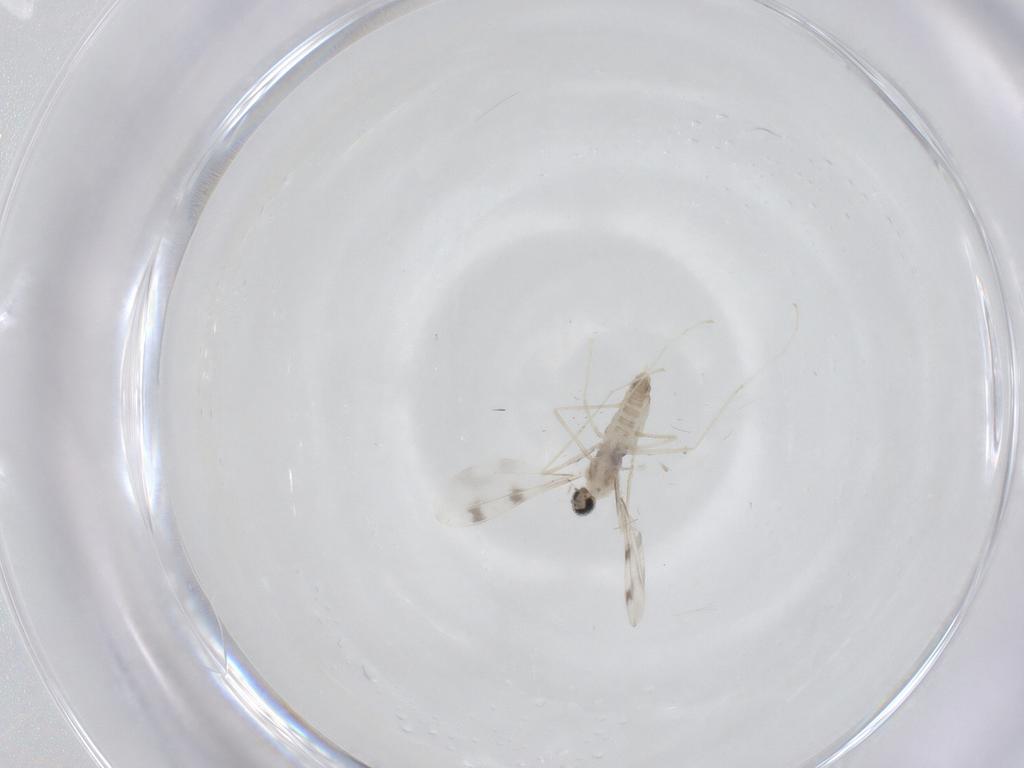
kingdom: Animalia
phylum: Arthropoda
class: Insecta
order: Diptera
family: Cecidomyiidae
